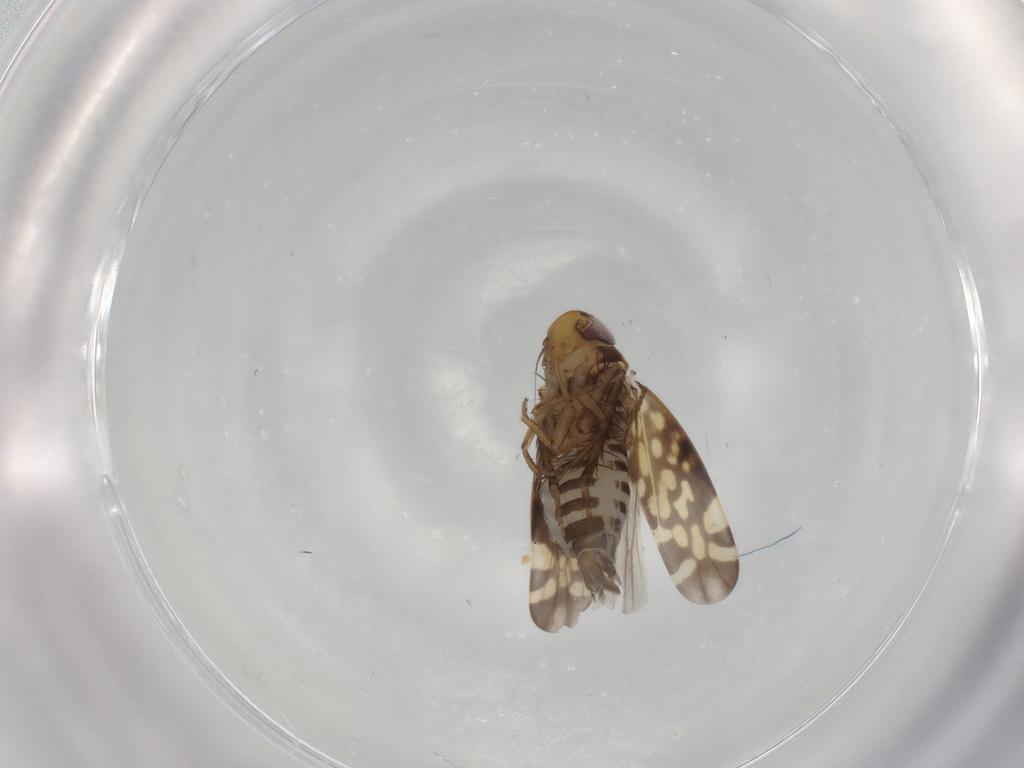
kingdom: Animalia
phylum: Arthropoda
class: Insecta
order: Hemiptera
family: Cicadellidae
